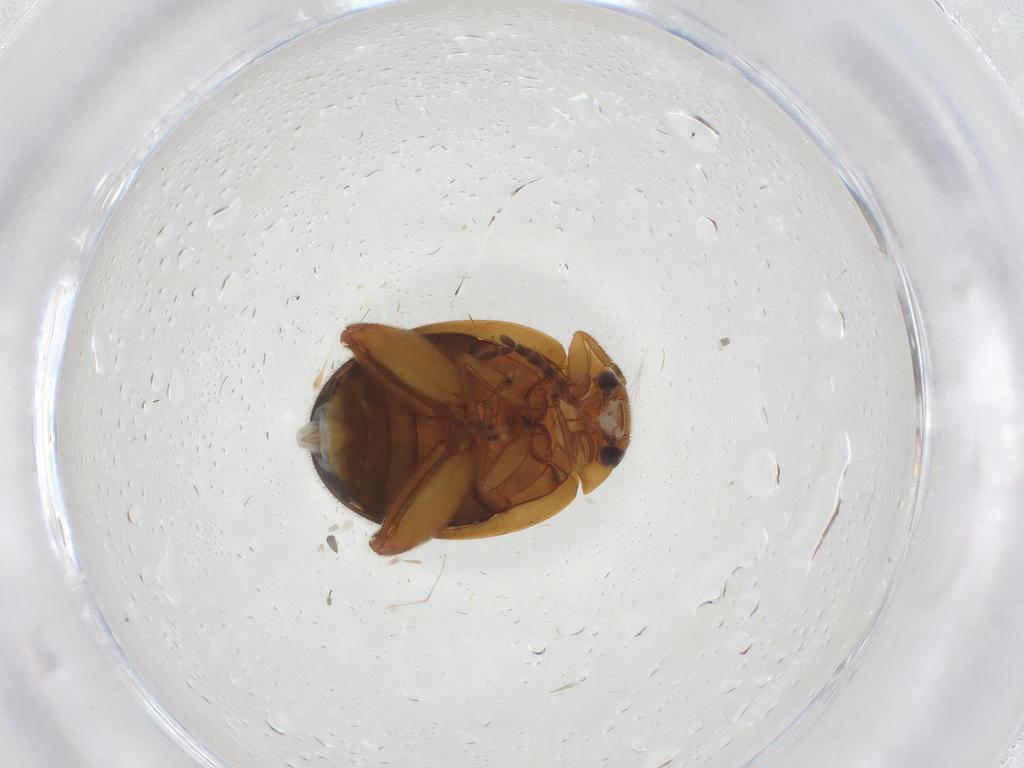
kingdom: Animalia
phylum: Arthropoda
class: Insecta
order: Coleoptera
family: Scirtidae
